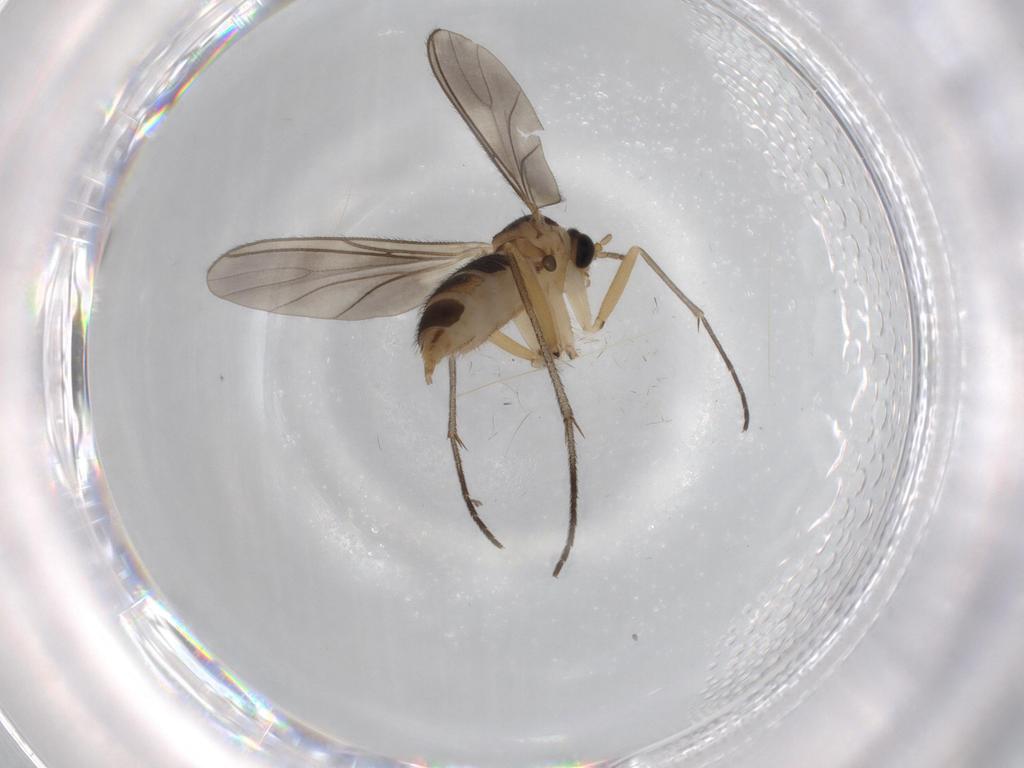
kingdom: Animalia
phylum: Arthropoda
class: Insecta
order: Diptera
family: Sciaridae
